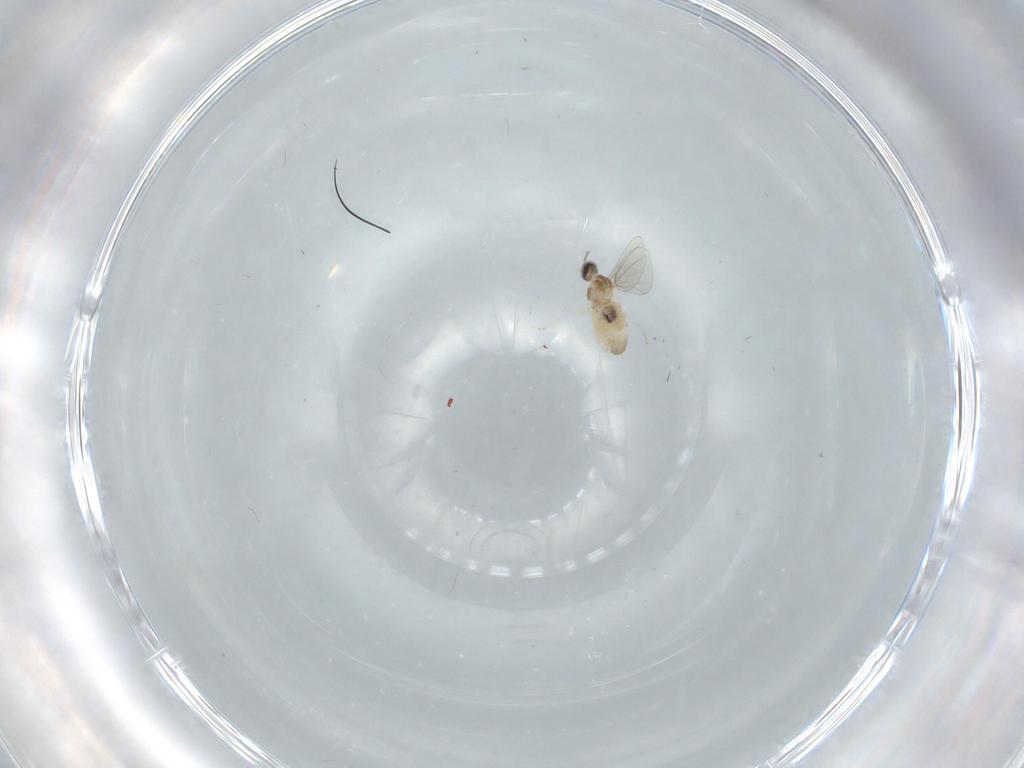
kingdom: Animalia
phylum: Arthropoda
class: Insecta
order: Diptera
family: Cecidomyiidae
